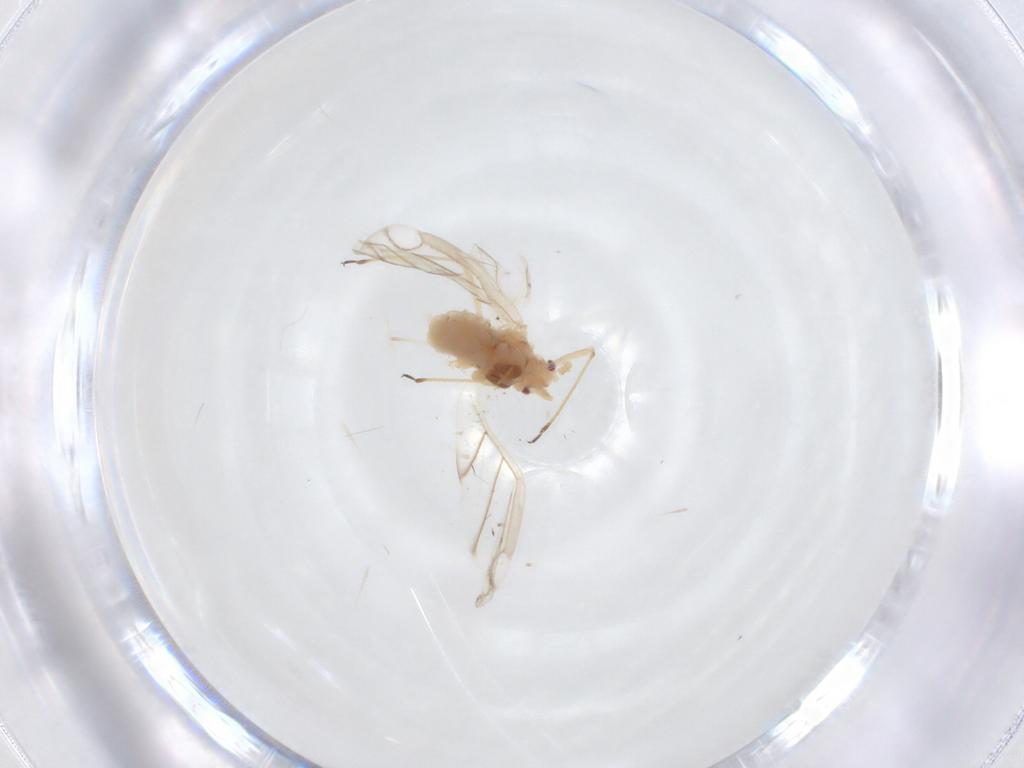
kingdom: Animalia
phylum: Arthropoda
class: Insecta
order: Hemiptera
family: Aphididae
